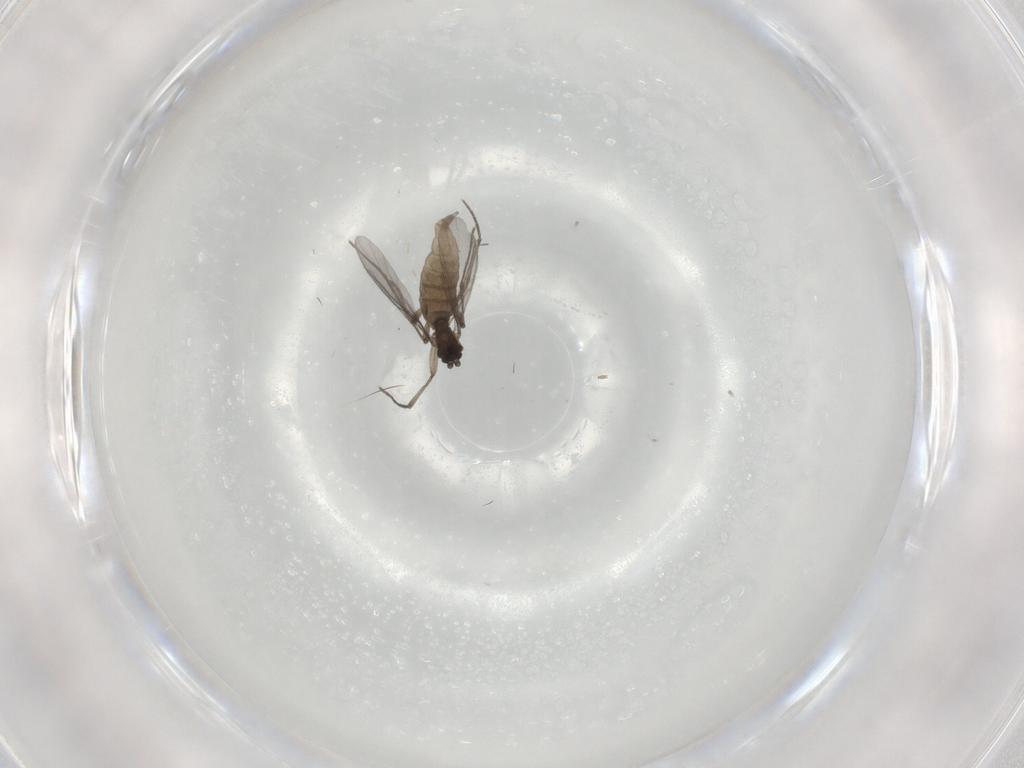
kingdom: Animalia
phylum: Arthropoda
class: Insecta
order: Diptera
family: Sciaridae
